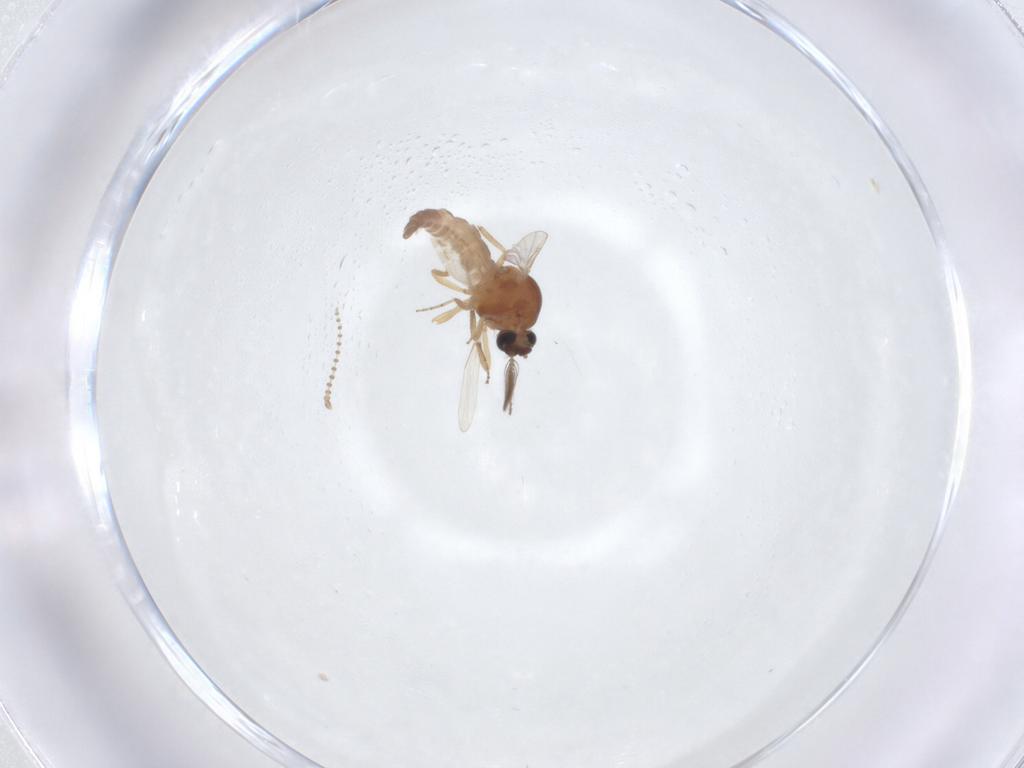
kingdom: Animalia
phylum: Arthropoda
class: Insecta
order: Diptera
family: Ceratopogonidae
